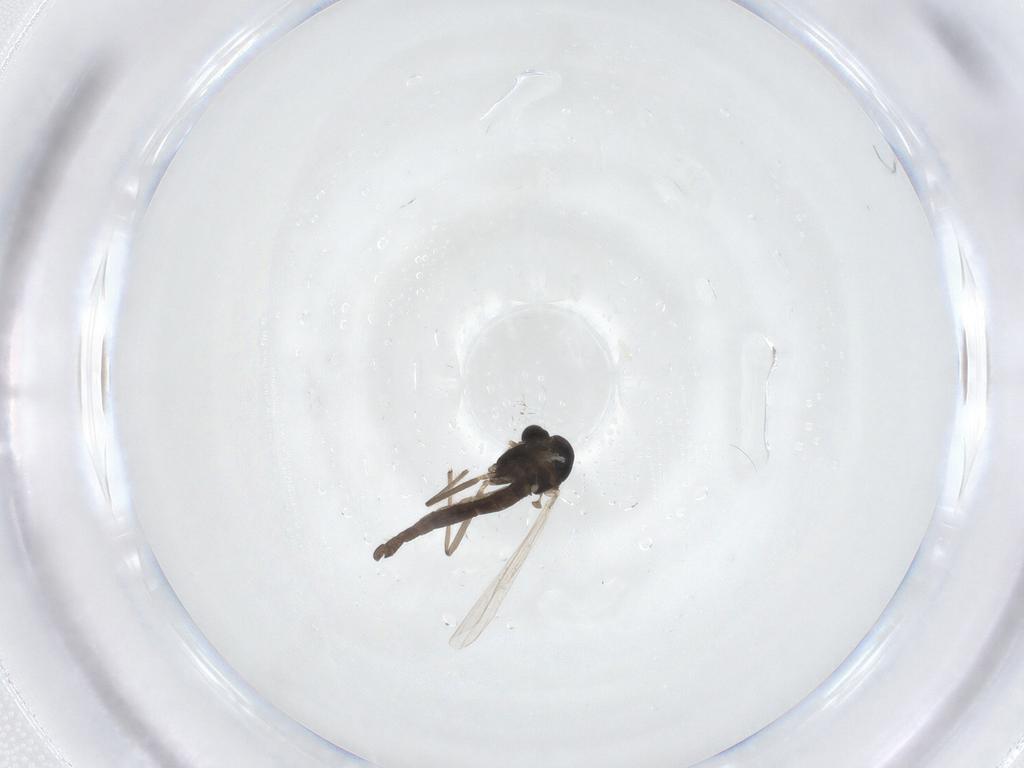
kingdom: Animalia
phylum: Arthropoda
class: Insecta
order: Diptera
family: Chironomidae
